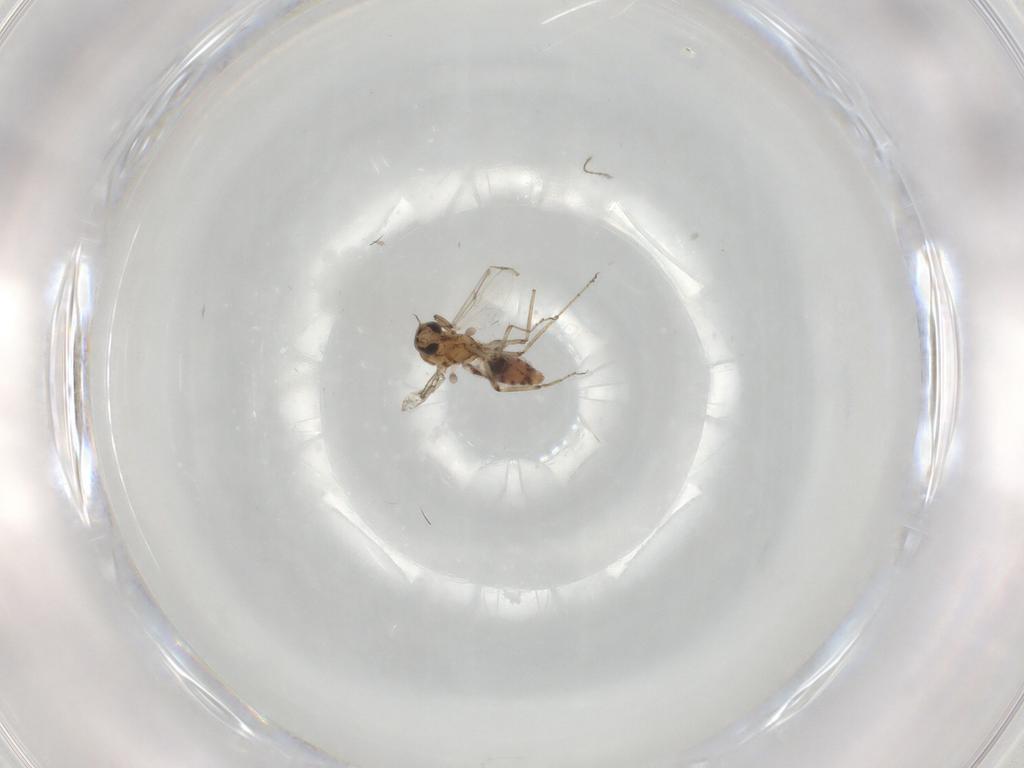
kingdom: Animalia
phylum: Arthropoda
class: Insecta
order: Diptera
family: Ceratopogonidae
